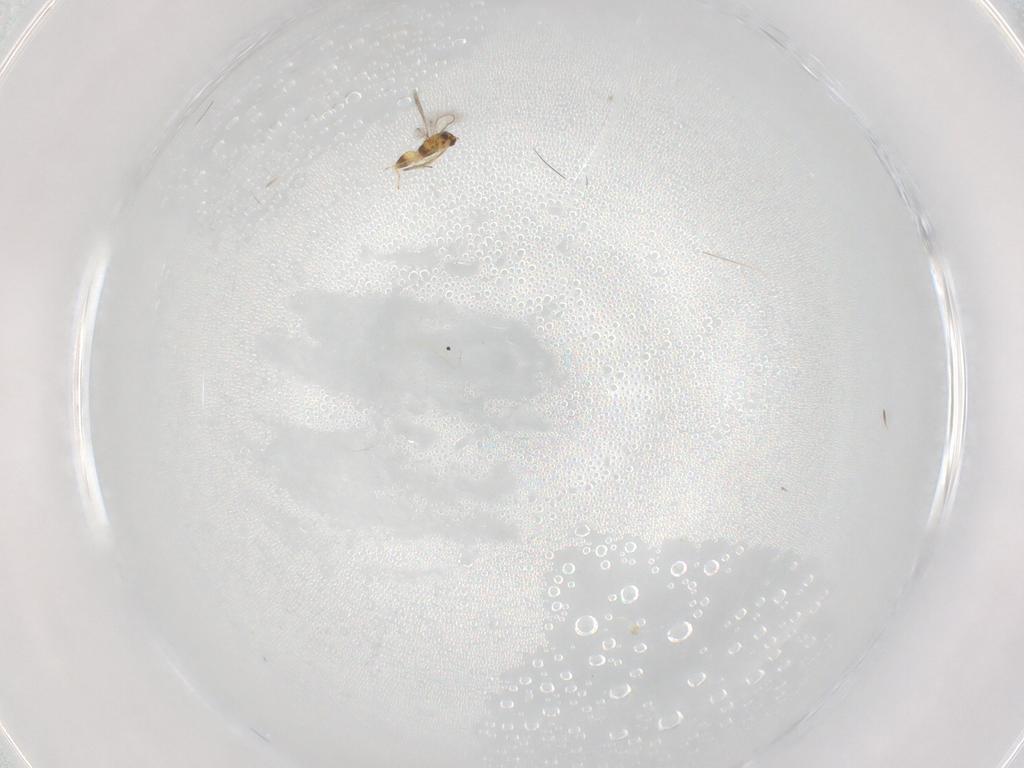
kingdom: Animalia
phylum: Arthropoda
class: Insecta
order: Hymenoptera
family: Mymaridae
